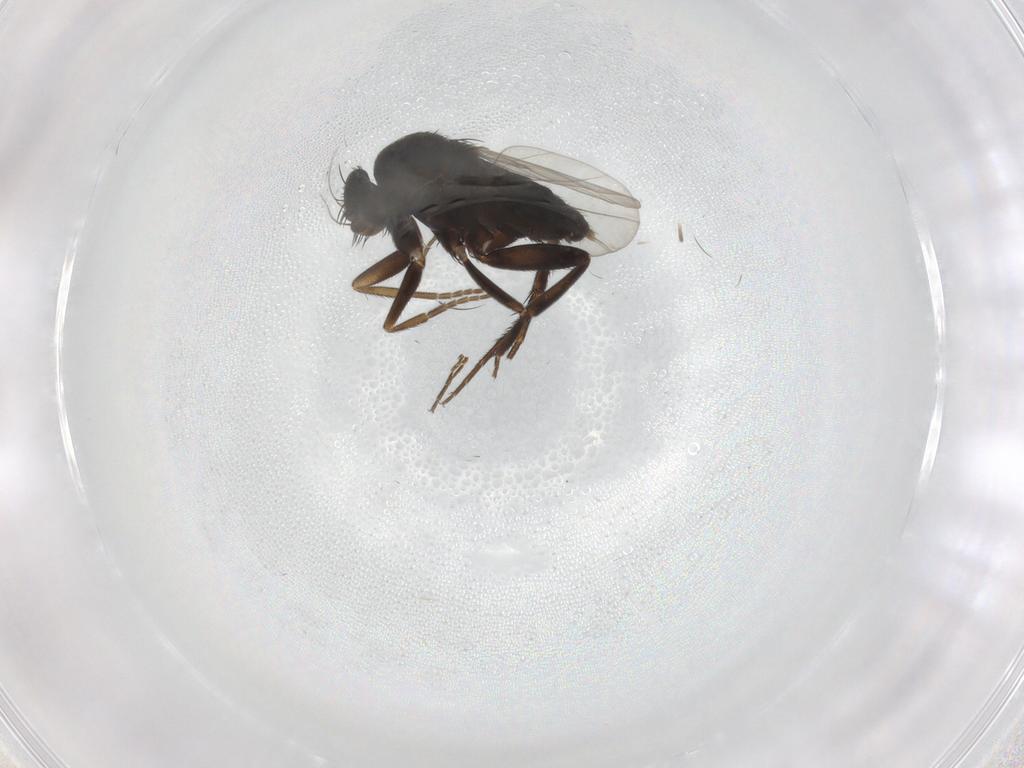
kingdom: Animalia
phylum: Arthropoda
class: Insecta
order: Diptera
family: Phoridae
